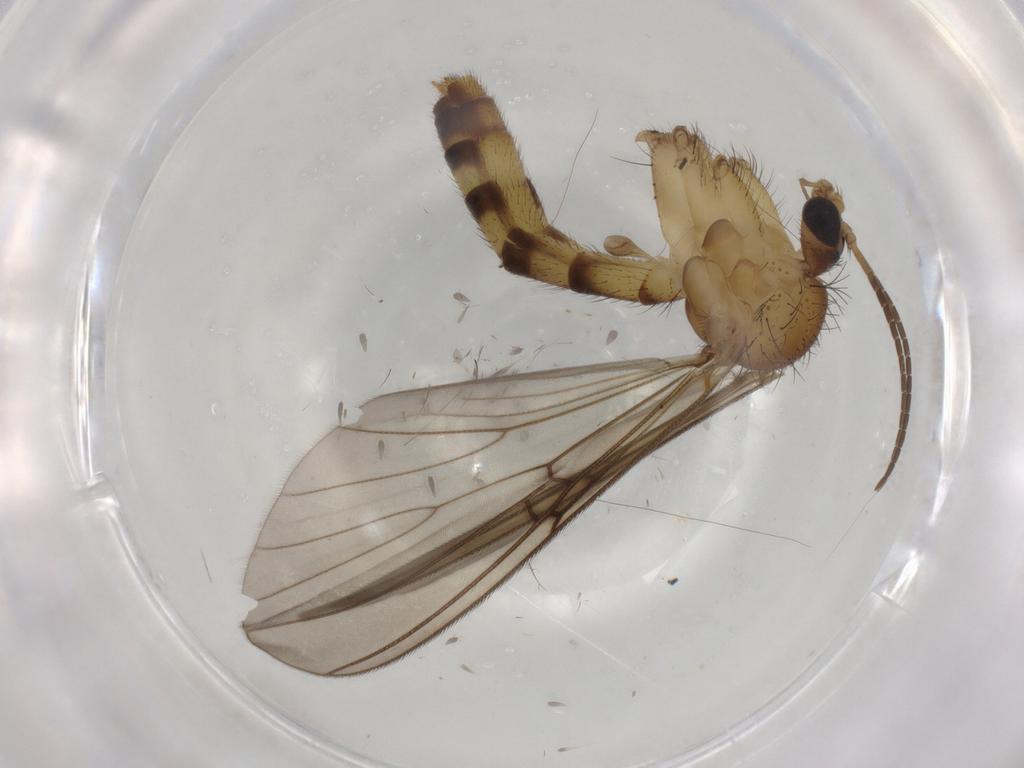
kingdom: Animalia
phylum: Arthropoda
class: Insecta
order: Diptera
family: Mycetophilidae
